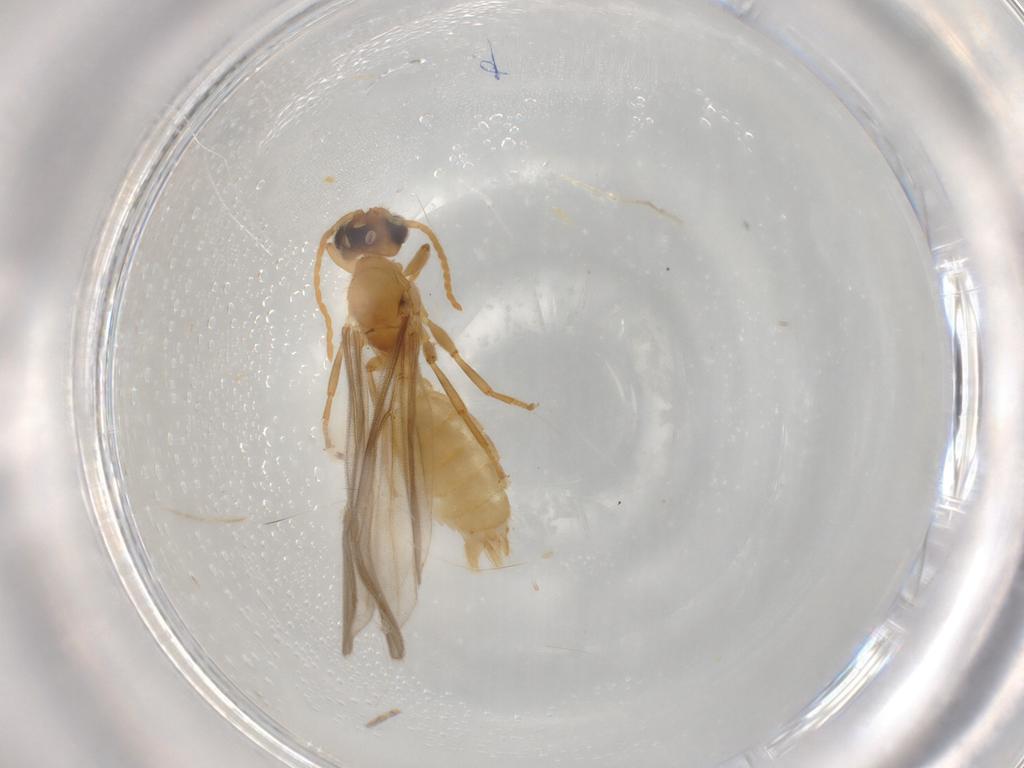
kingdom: Animalia
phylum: Arthropoda
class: Insecta
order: Hymenoptera
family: Formicidae
